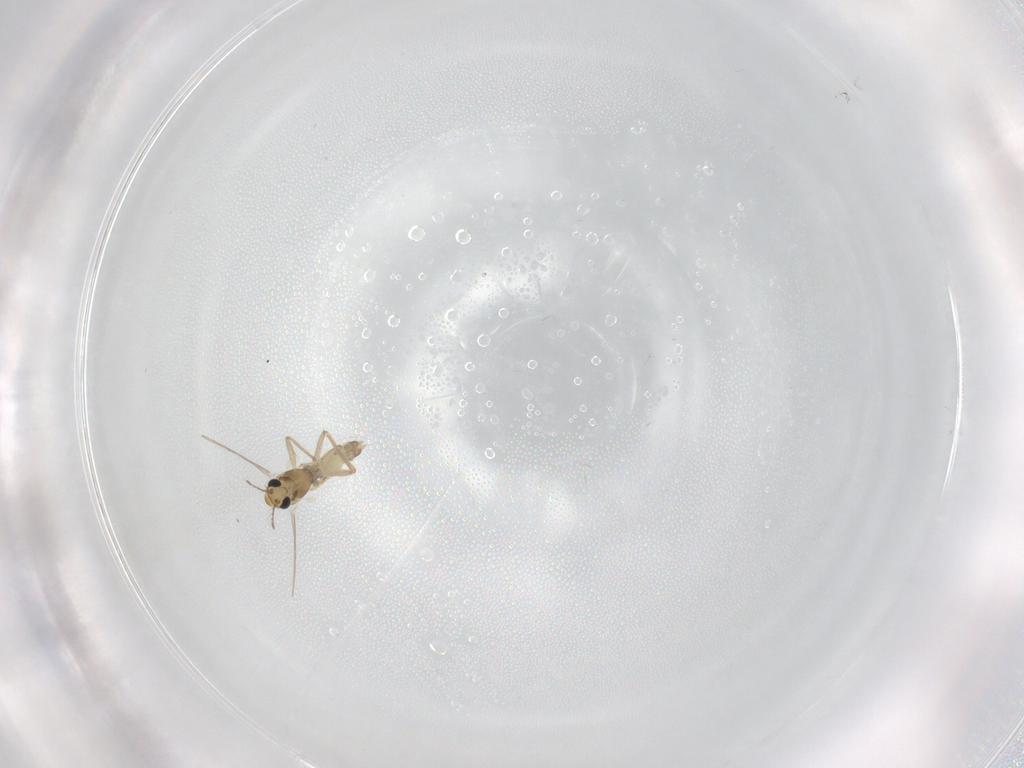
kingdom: Animalia
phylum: Arthropoda
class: Insecta
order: Diptera
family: Chironomidae
